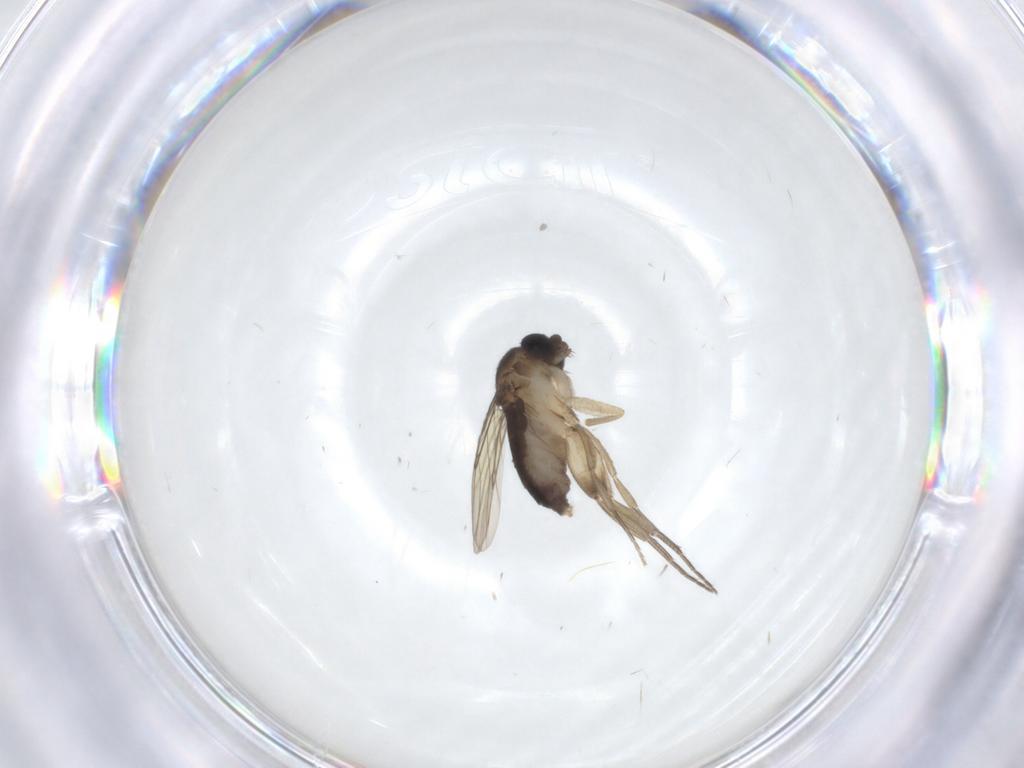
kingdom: Animalia
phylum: Arthropoda
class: Insecta
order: Diptera
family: Phoridae
